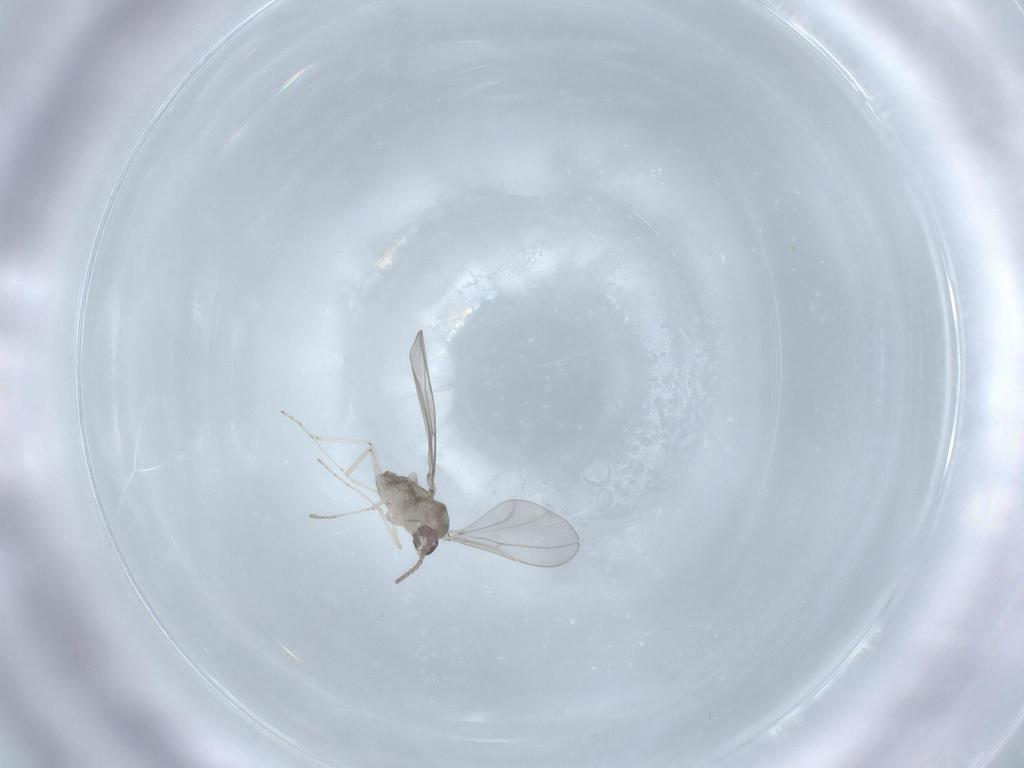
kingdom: Animalia
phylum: Arthropoda
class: Insecta
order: Diptera
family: Cecidomyiidae
